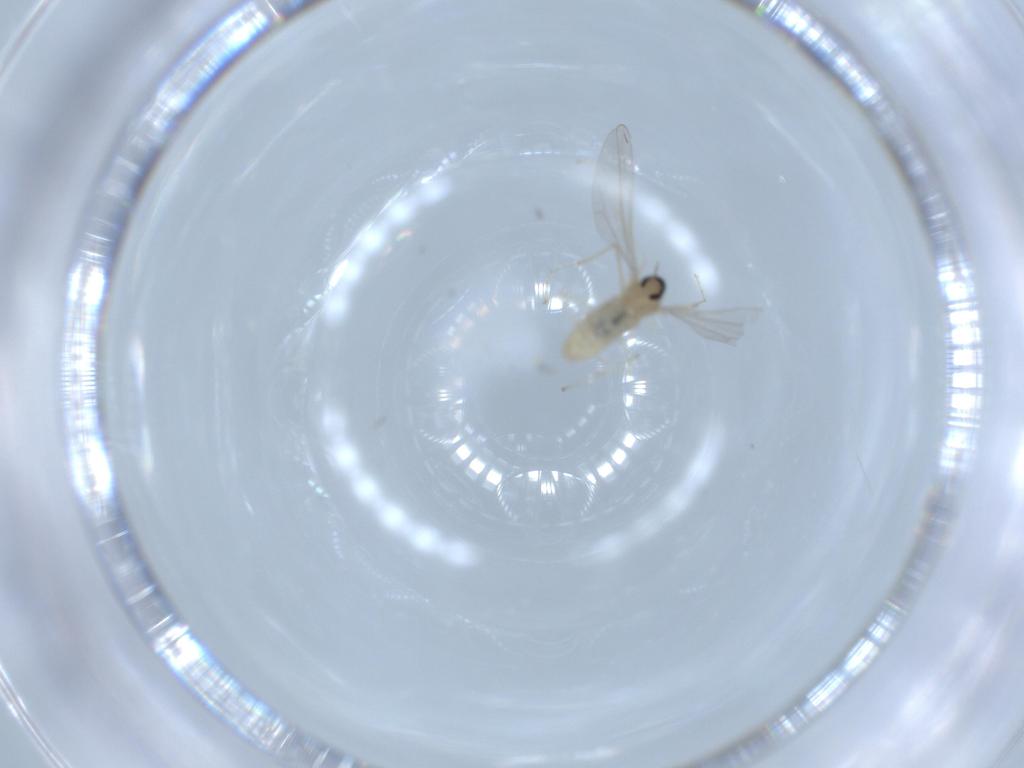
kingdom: Animalia
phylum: Arthropoda
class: Insecta
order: Diptera
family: Cecidomyiidae
